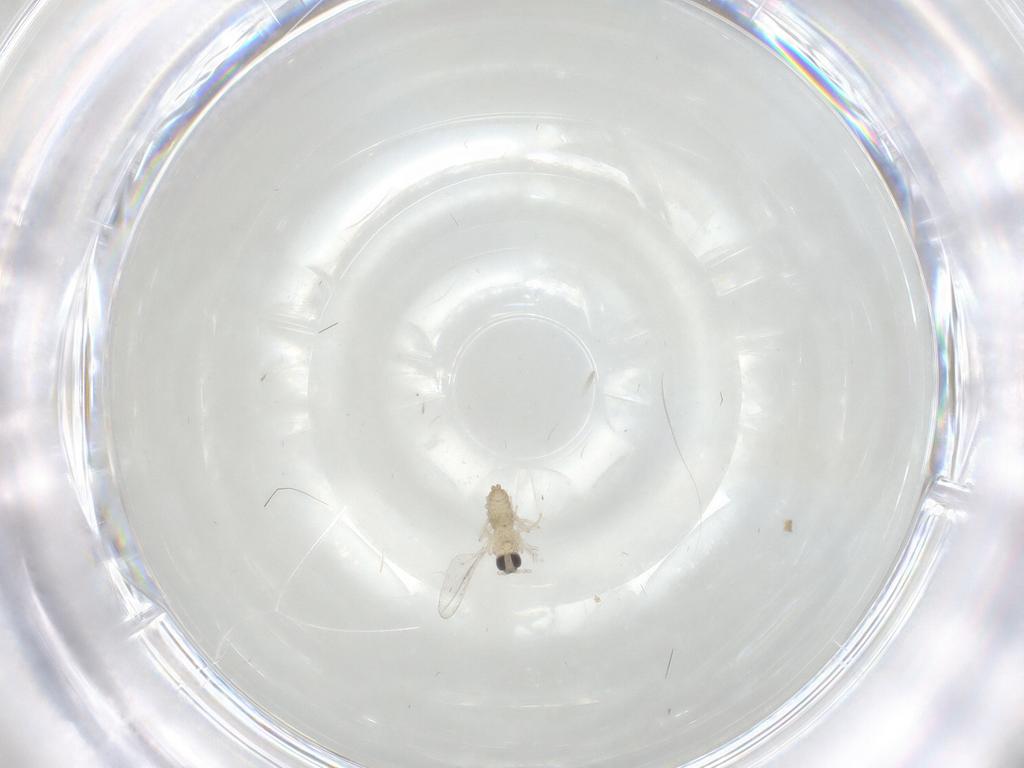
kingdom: Animalia
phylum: Arthropoda
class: Insecta
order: Diptera
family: Cecidomyiidae
